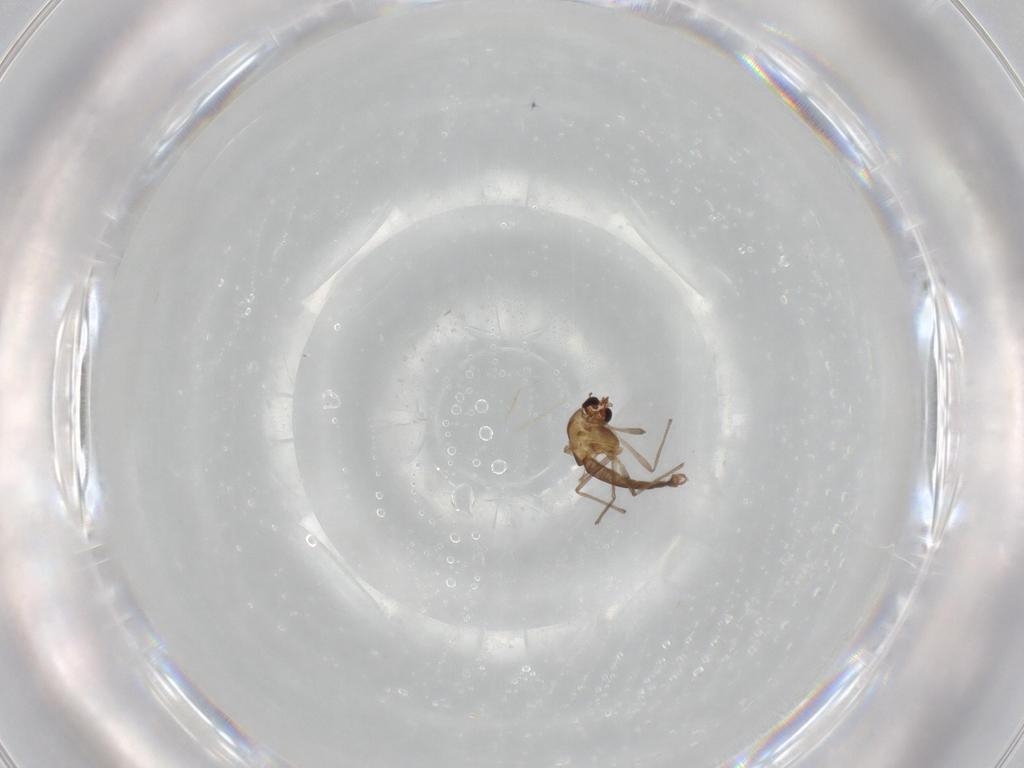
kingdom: Animalia
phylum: Arthropoda
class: Insecta
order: Diptera
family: Chironomidae
